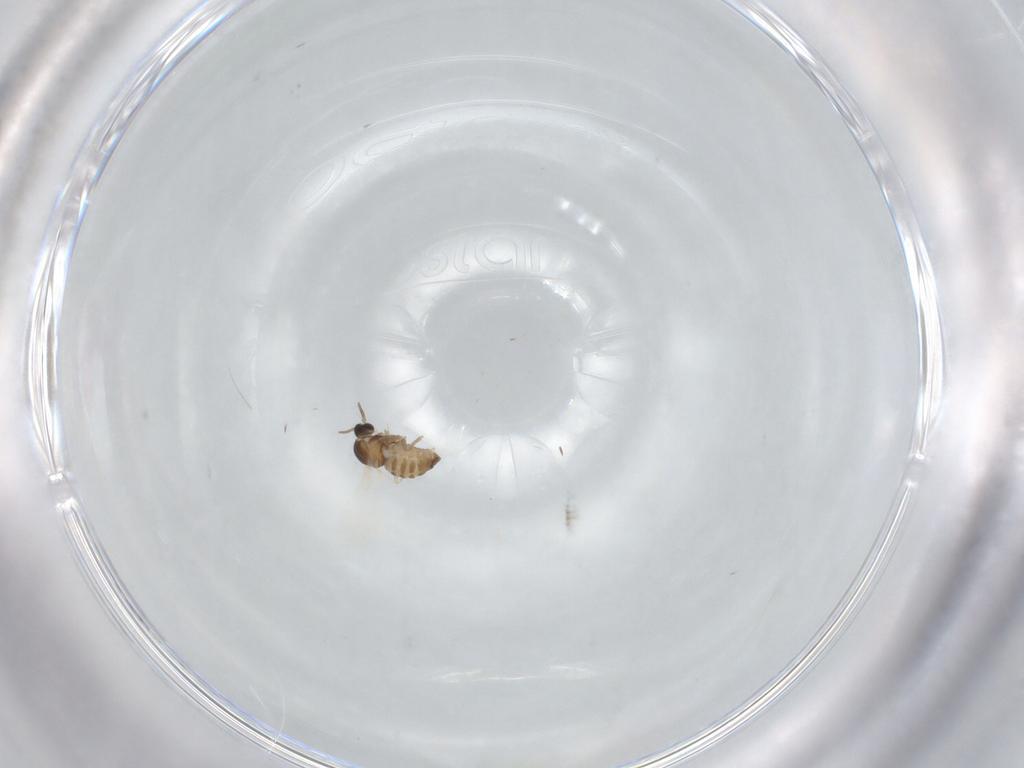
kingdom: Animalia
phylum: Arthropoda
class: Insecta
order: Diptera
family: Cecidomyiidae
